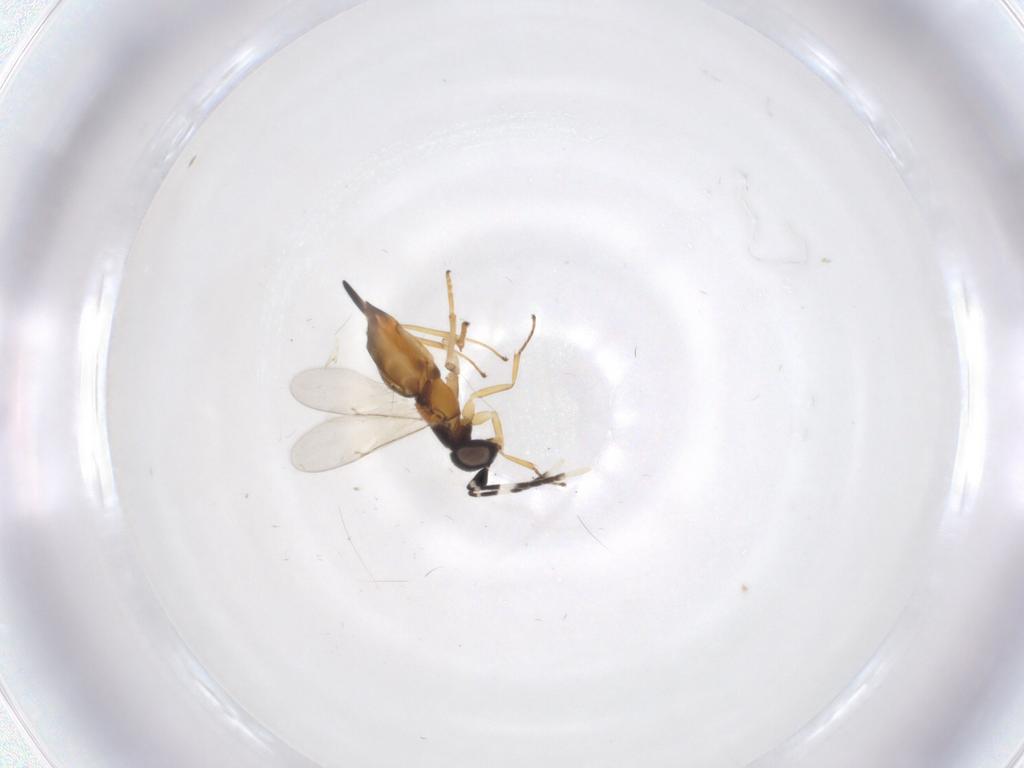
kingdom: Animalia
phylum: Arthropoda
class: Insecta
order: Hymenoptera
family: Encyrtidae
